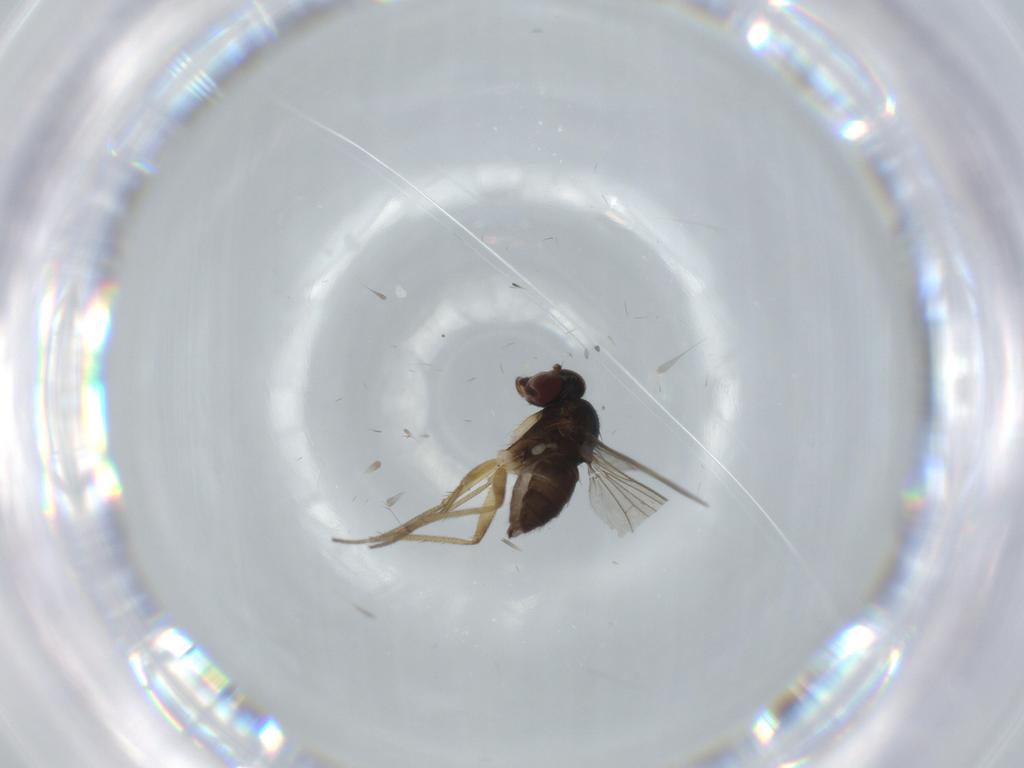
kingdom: Animalia
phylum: Arthropoda
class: Insecta
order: Diptera
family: Dolichopodidae
